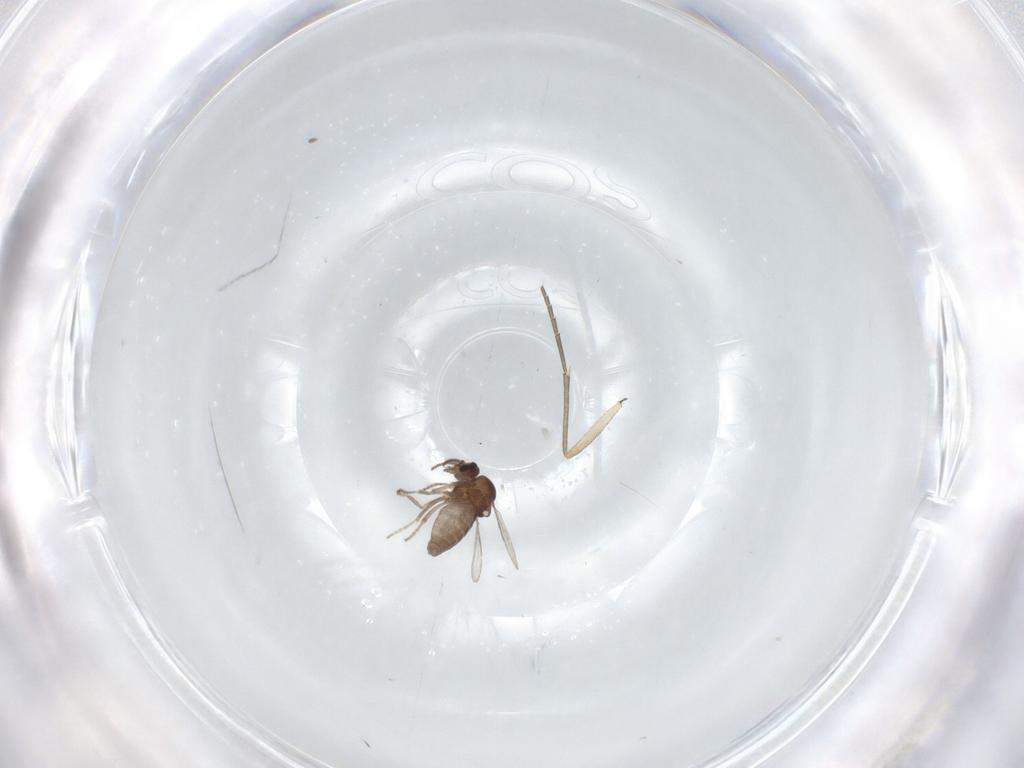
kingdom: Animalia
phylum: Arthropoda
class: Insecta
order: Diptera
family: Ceratopogonidae
